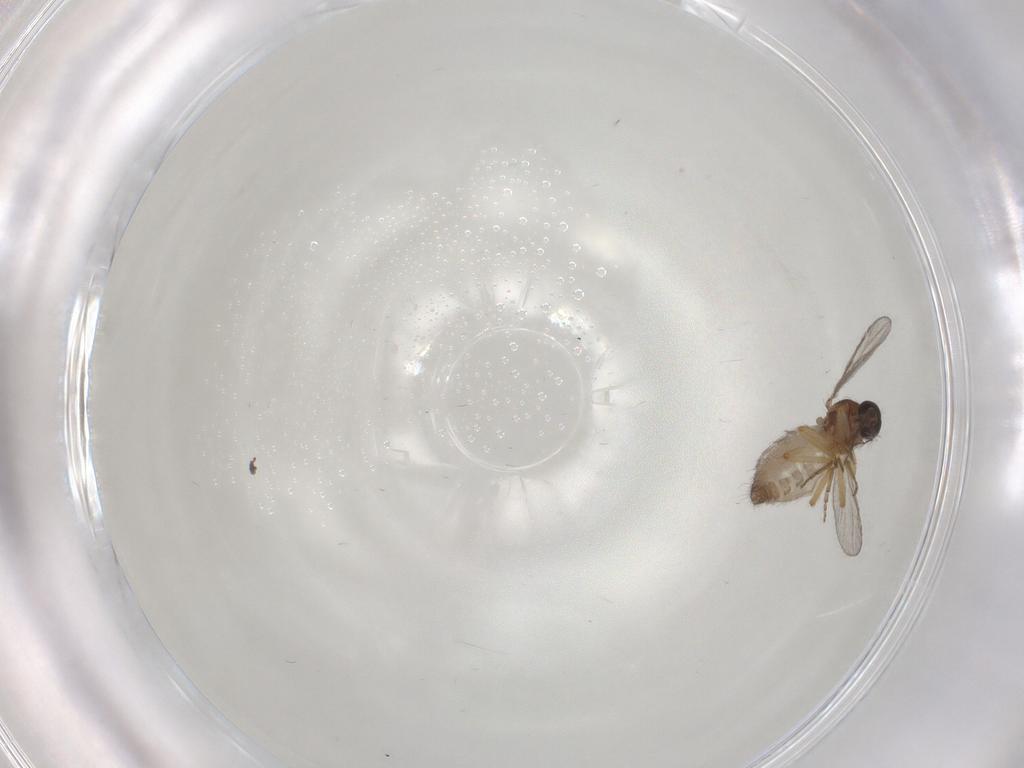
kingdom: Animalia
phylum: Arthropoda
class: Insecta
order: Diptera
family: Ceratopogonidae
